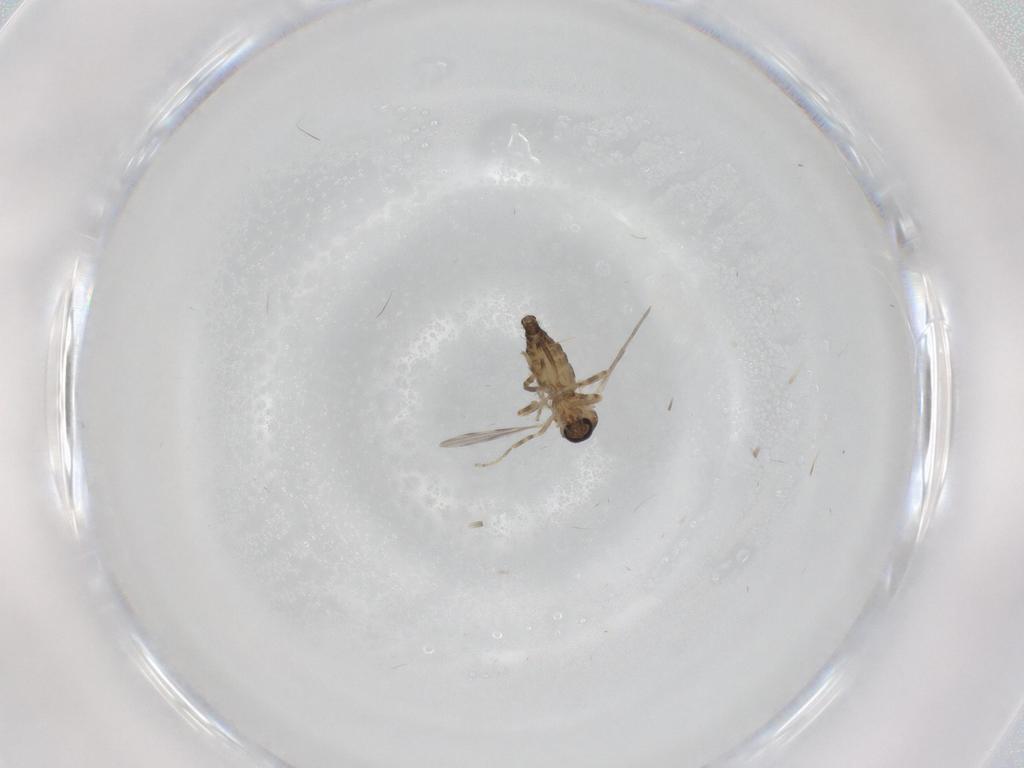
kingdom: Animalia
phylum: Arthropoda
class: Insecta
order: Diptera
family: Ceratopogonidae
